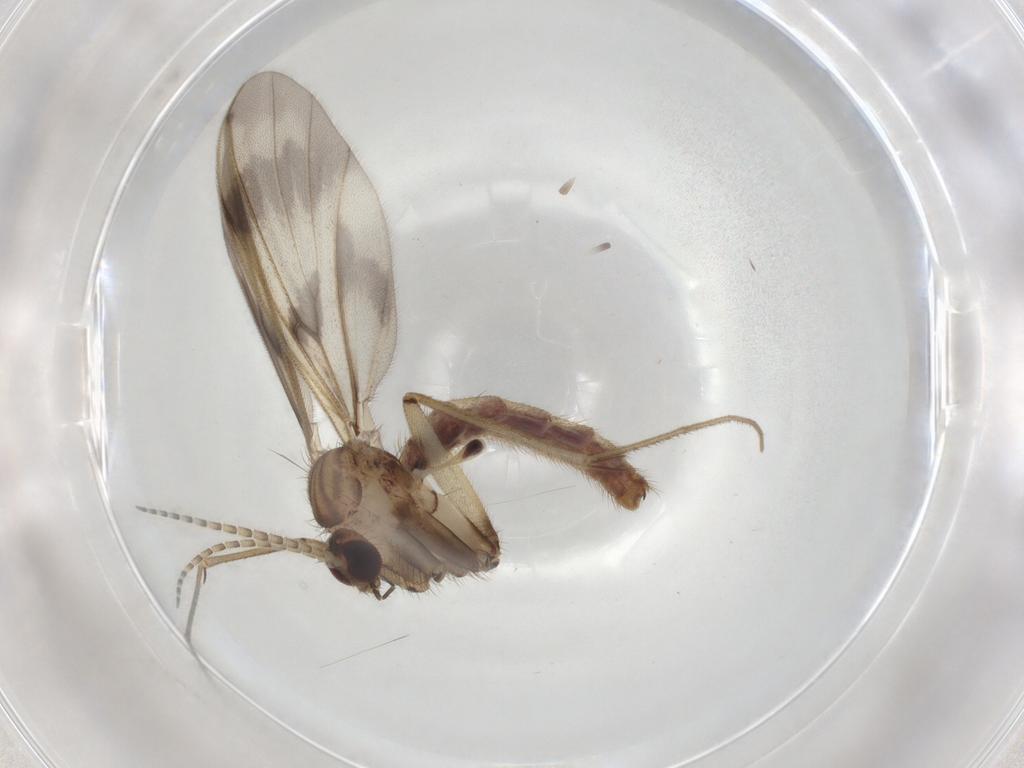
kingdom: Animalia
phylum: Arthropoda
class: Insecta
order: Diptera
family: Mycetophilidae
